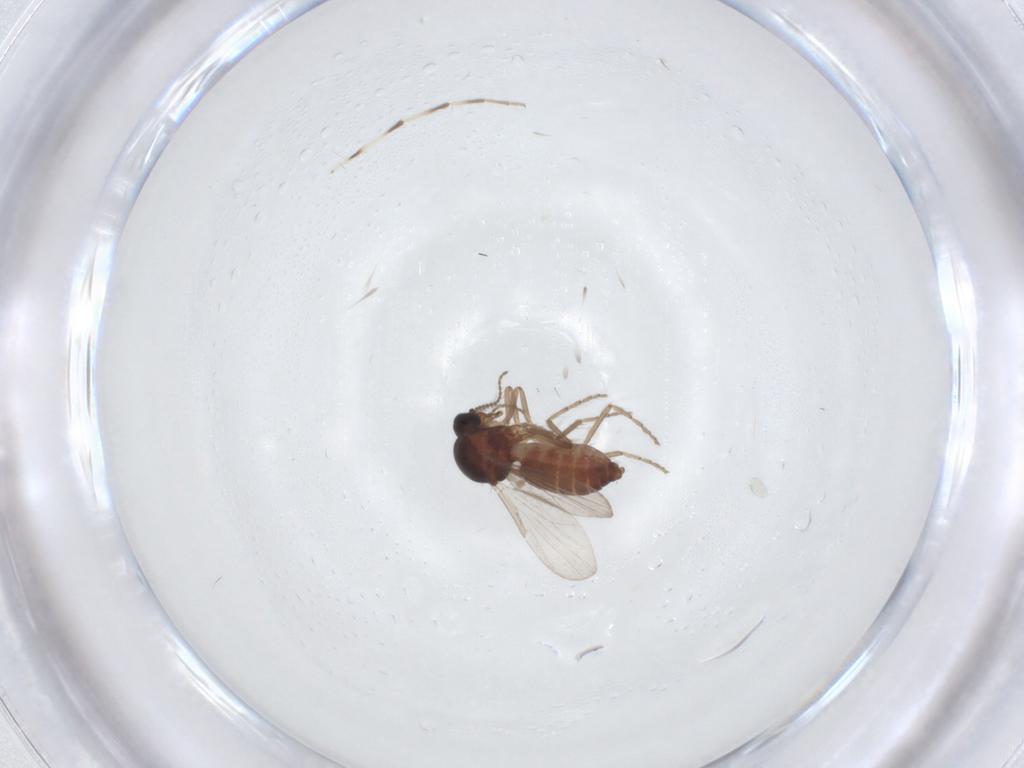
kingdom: Animalia
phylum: Arthropoda
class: Insecta
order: Diptera
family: Ceratopogonidae
